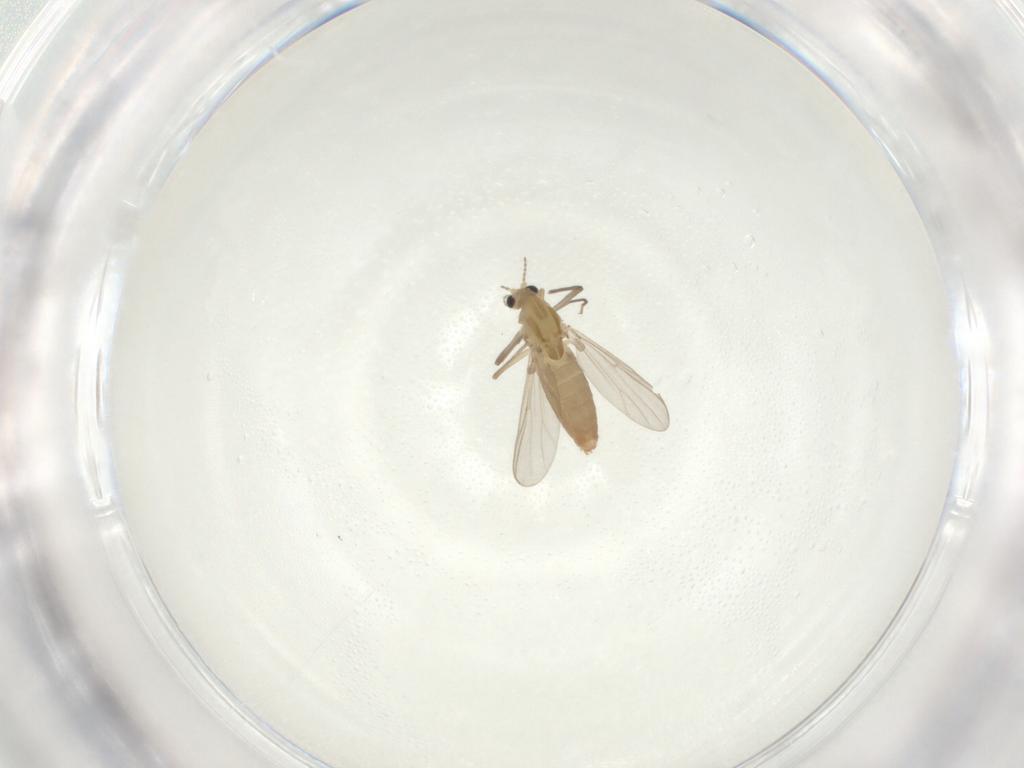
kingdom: Animalia
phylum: Arthropoda
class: Insecta
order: Diptera
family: Chironomidae
